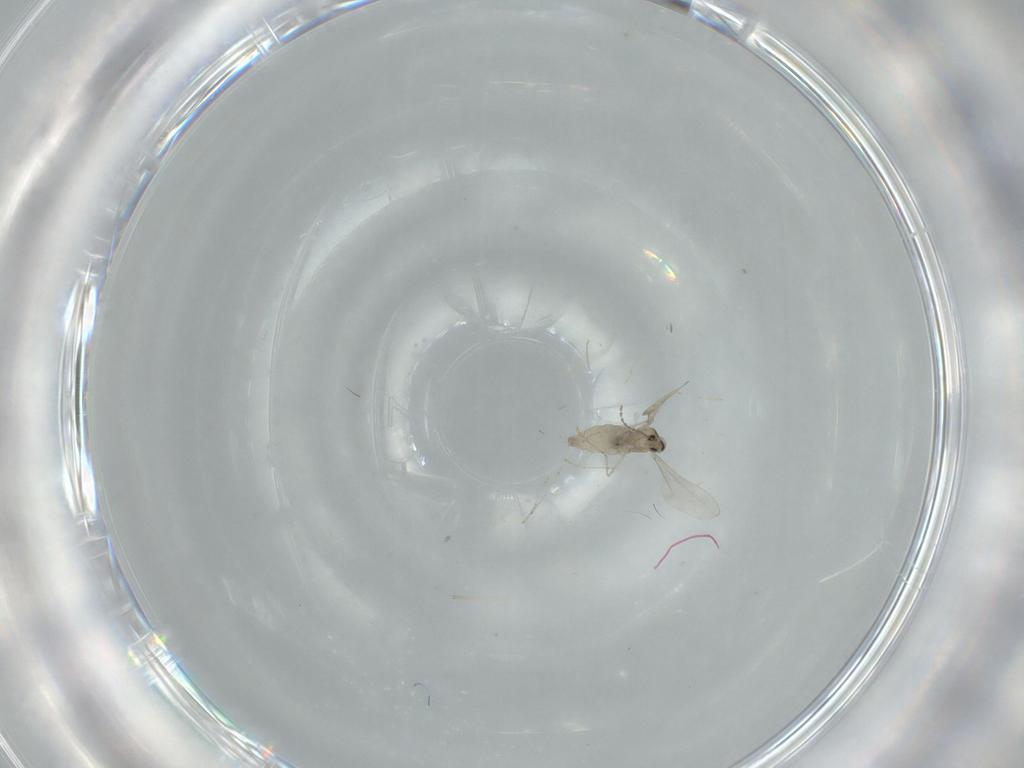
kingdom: Animalia
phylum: Arthropoda
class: Insecta
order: Diptera
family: Cecidomyiidae
